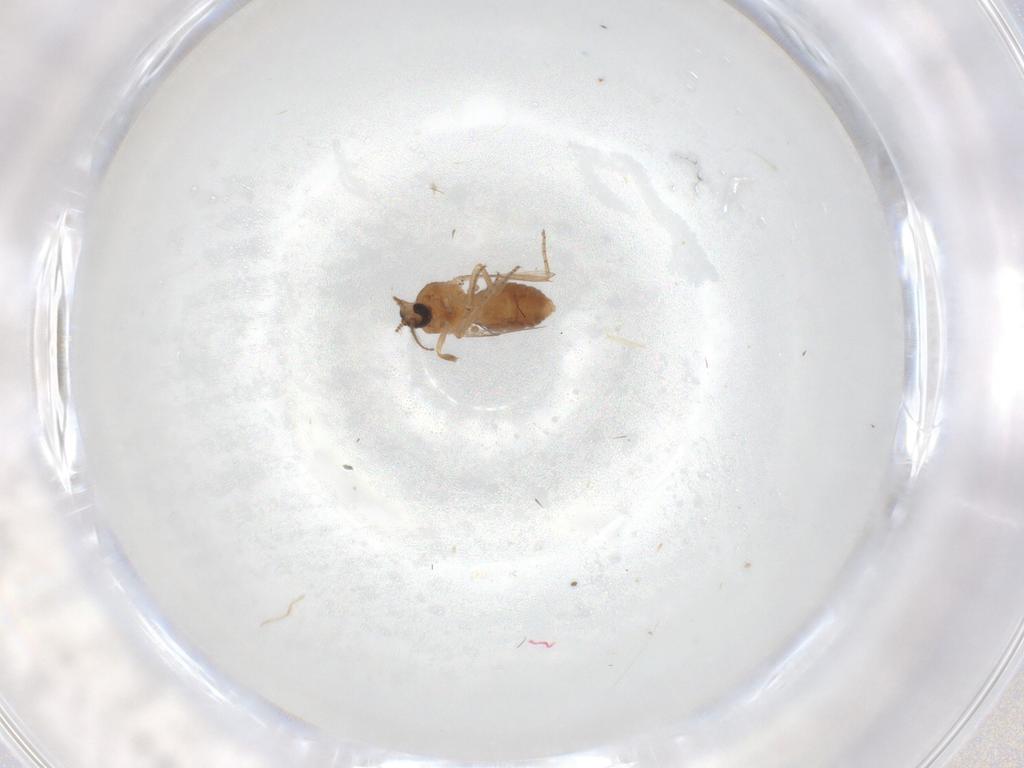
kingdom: Animalia
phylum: Arthropoda
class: Insecta
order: Diptera
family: Ceratopogonidae
